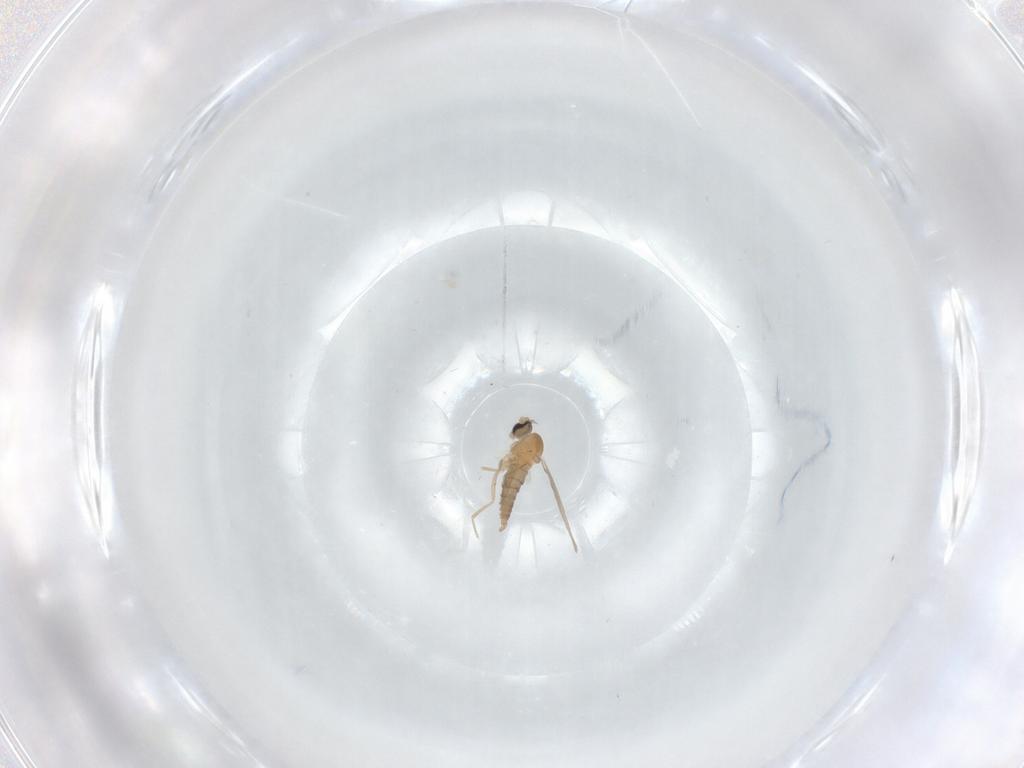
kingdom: Animalia
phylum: Arthropoda
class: Insecta
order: Diptera
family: Cecidomyiidae
